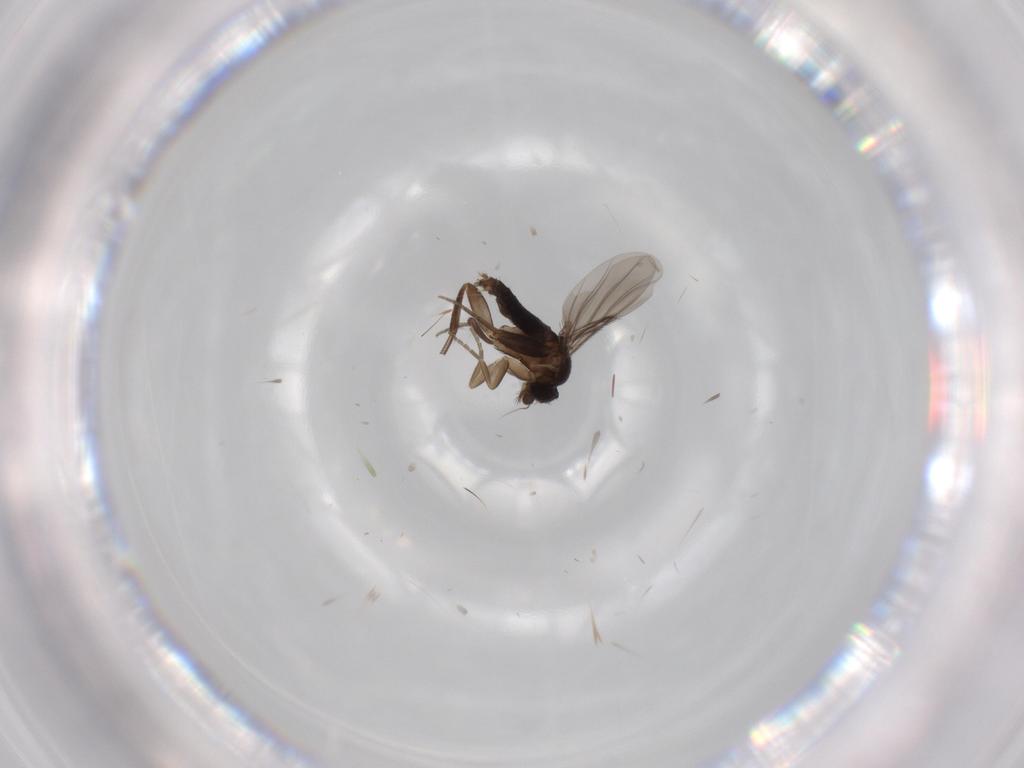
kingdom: Animalia
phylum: Arthropoda
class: Insecta
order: Diptera
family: Phoridae
